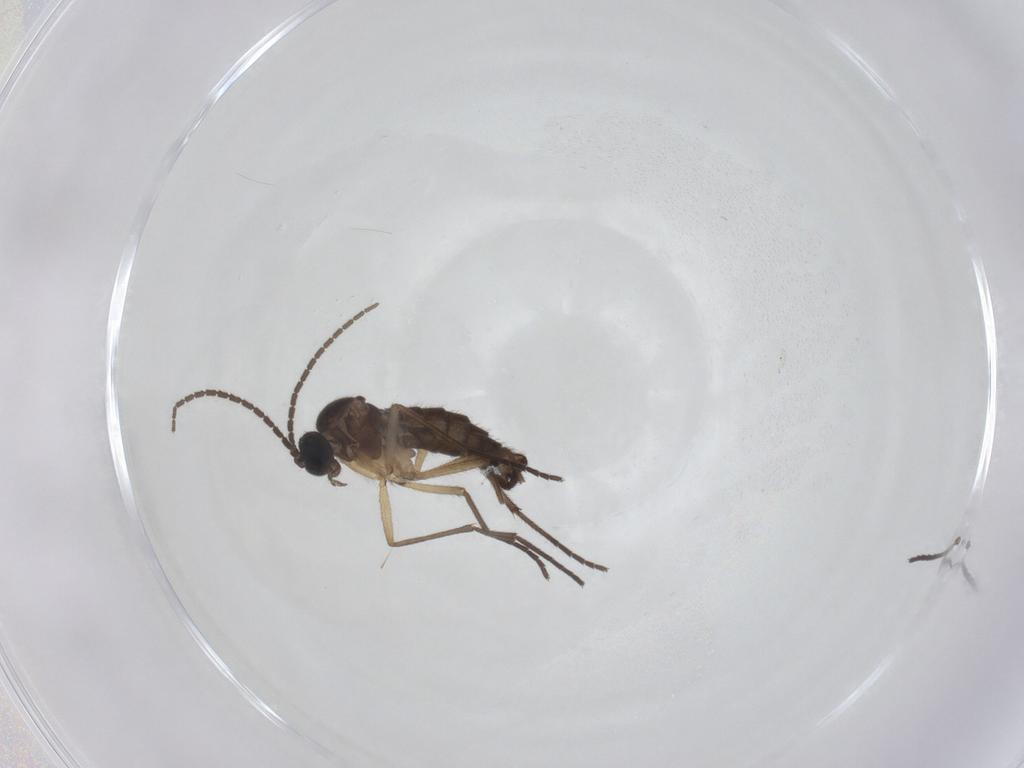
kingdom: Animalia
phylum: Arthropoda
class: Insecta
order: Diptera
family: Sciaridae
